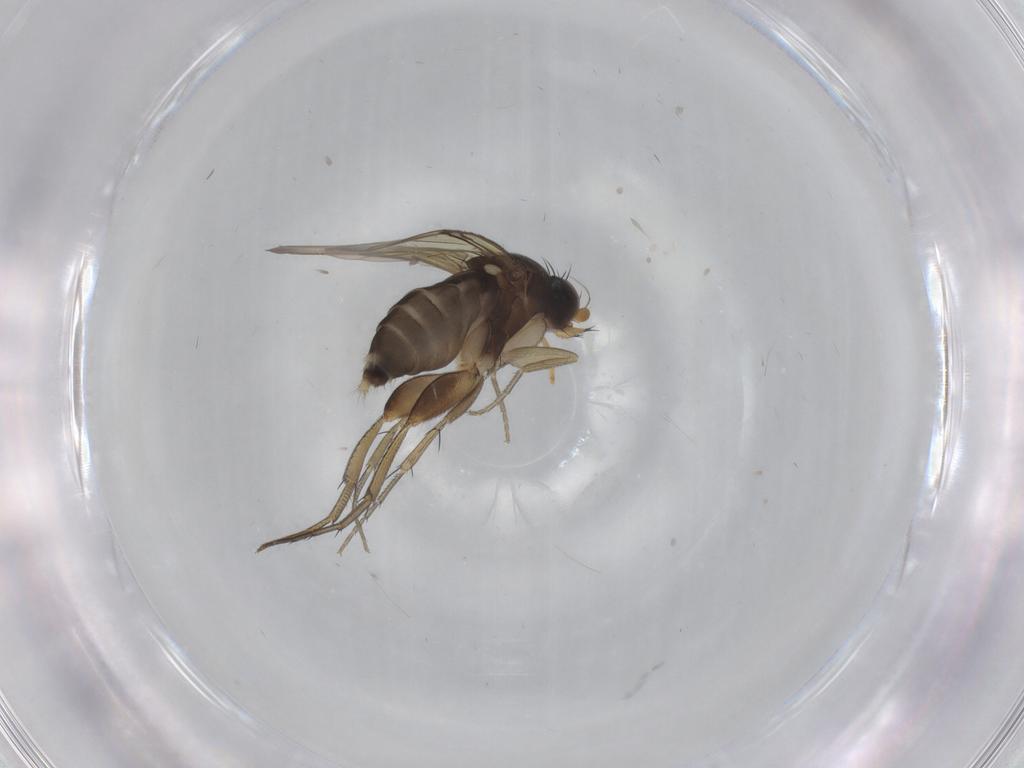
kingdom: Animalia
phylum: Arthropoda
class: Insecta
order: Diptera
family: Phoridae
